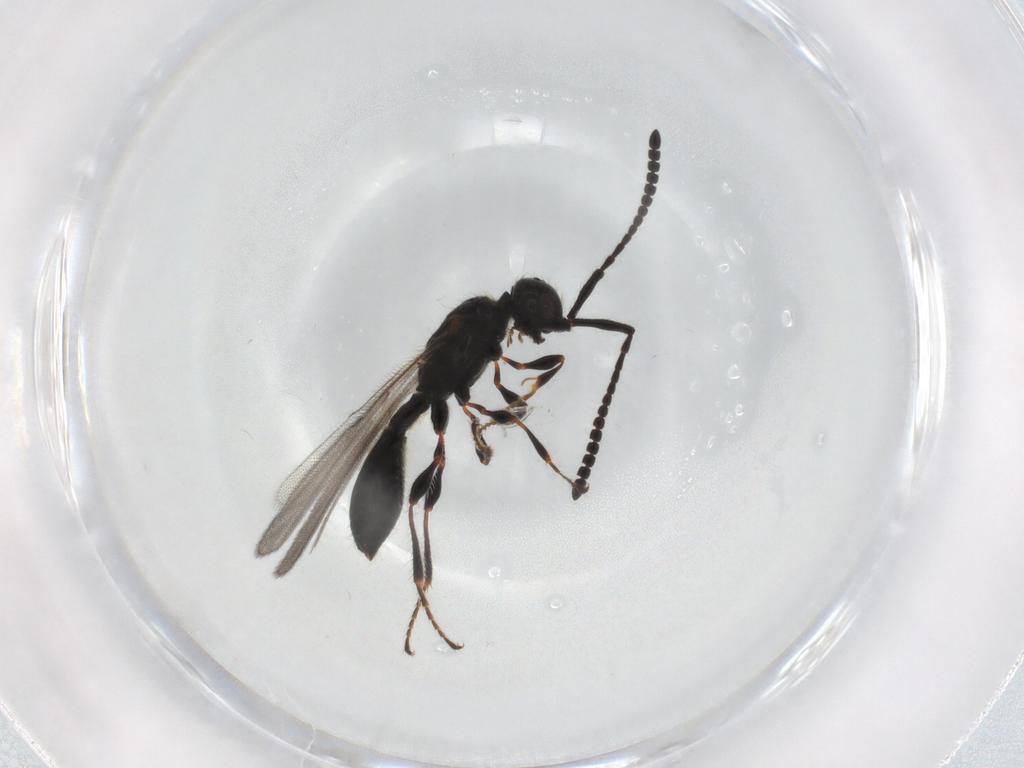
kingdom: Animalia
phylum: Arthropoda
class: Insecta
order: Hymenoptera
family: Diapriidae
